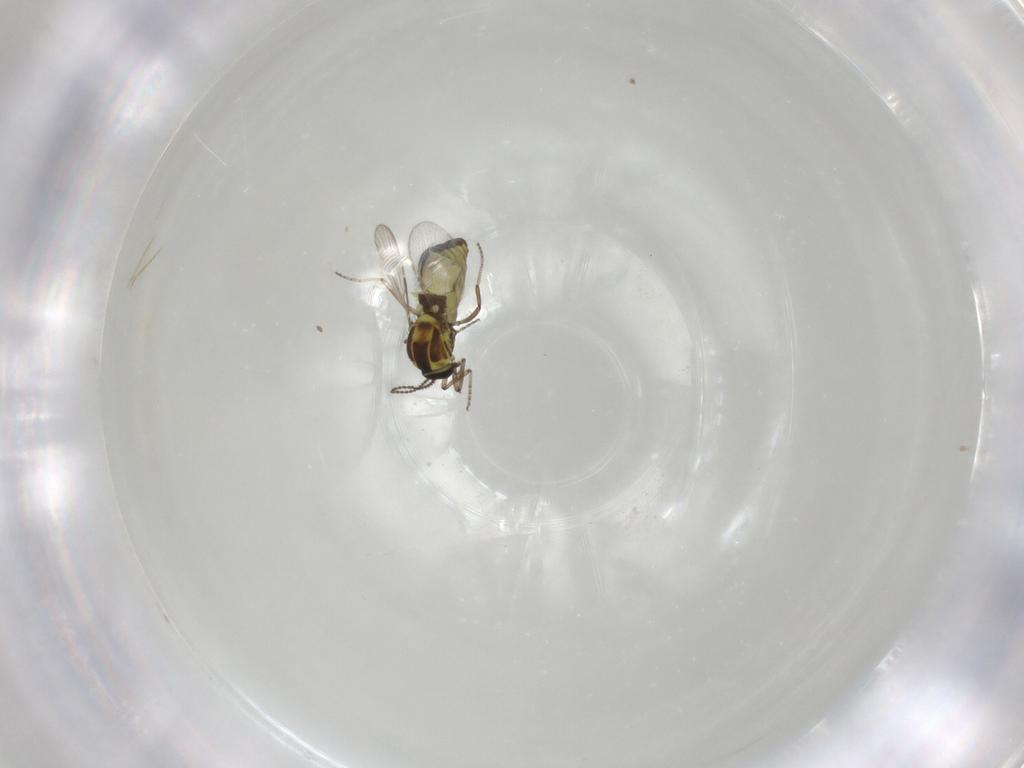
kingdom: Animalia
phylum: Arthropoda
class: Insecta
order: Diptera
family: Ceratopogonidae
